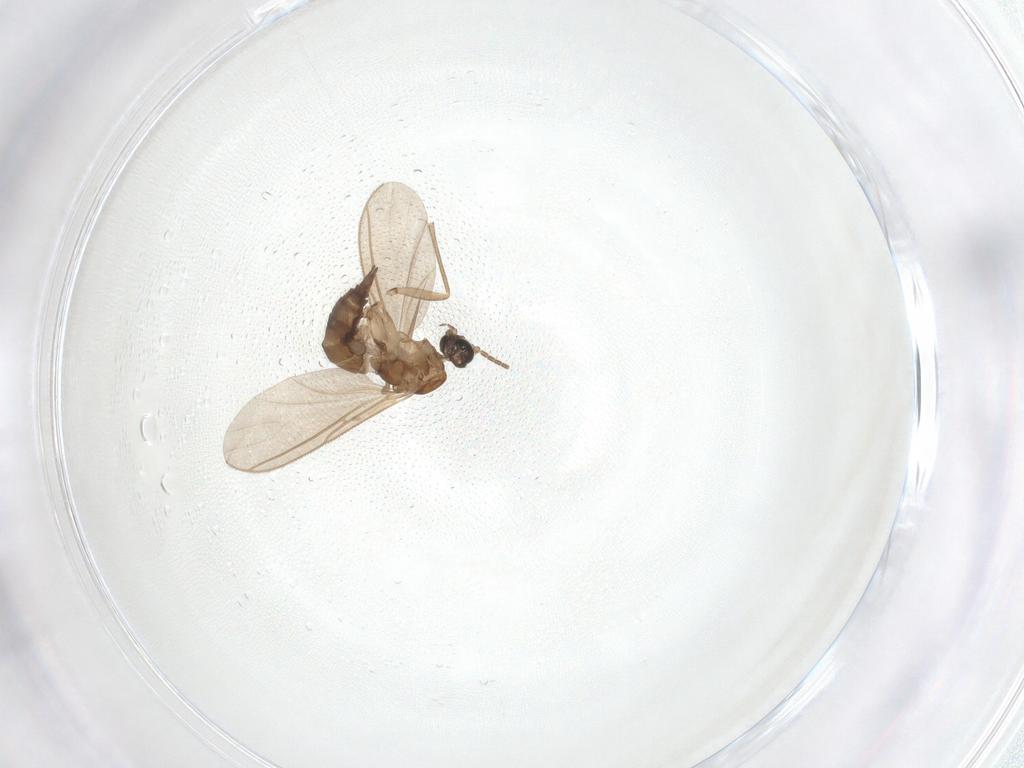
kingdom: Animalia
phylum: Arthropoda
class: Insecta
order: Diptera
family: Sciaridae
